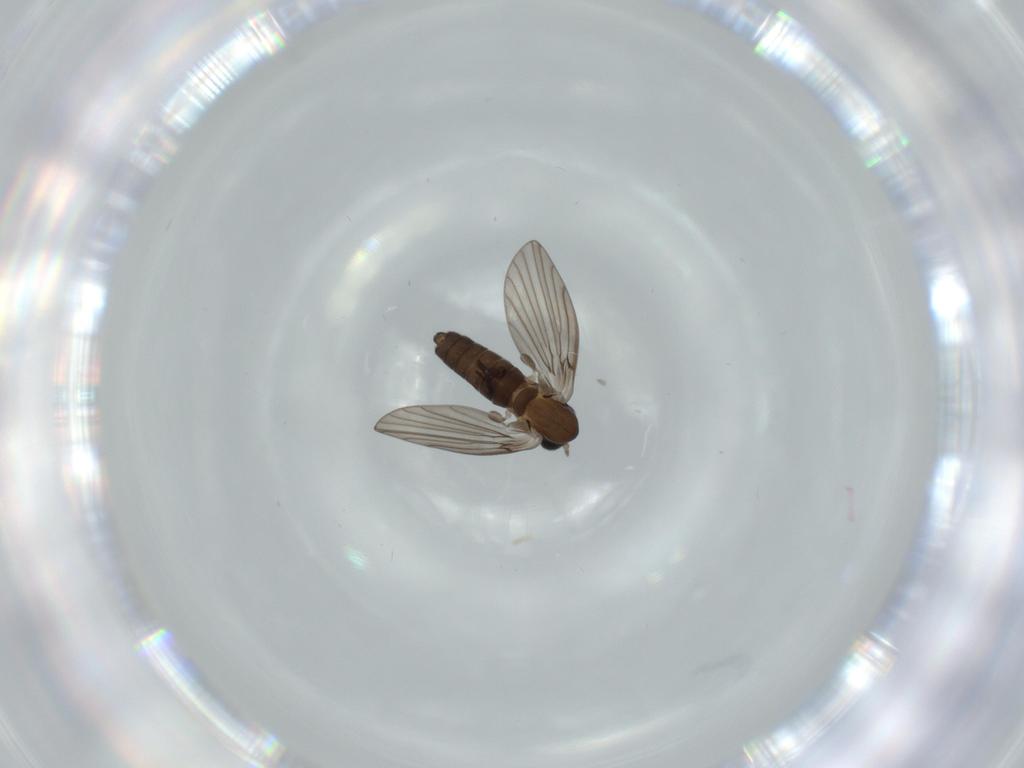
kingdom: Animalia
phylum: Arthropoda
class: Insecta
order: Diptera
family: Psychodidae
